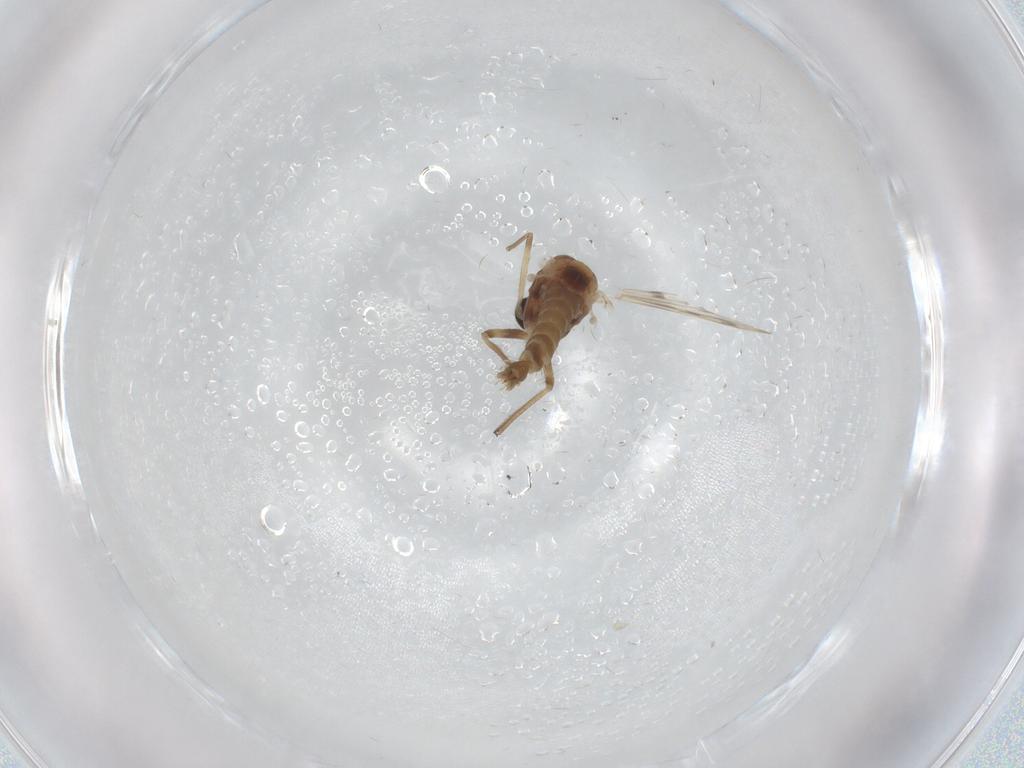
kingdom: Animalia
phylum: Arthropoda
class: Insecta
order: Diptera
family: Chironomidae
